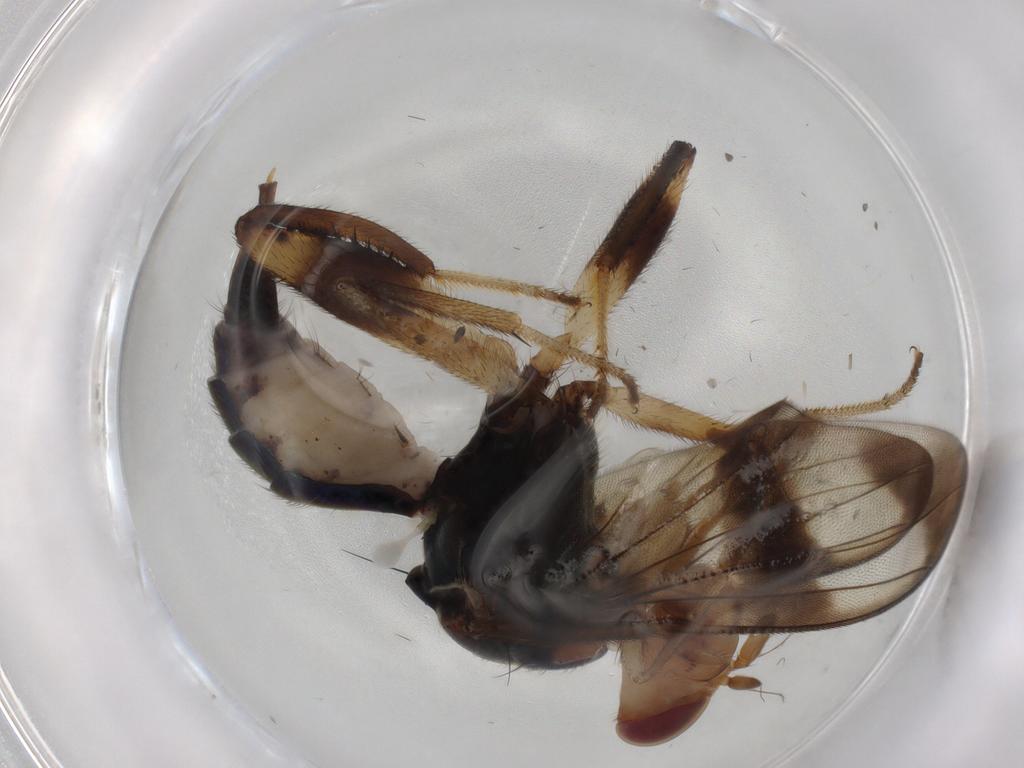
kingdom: Animalia
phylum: Arthropoda
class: Insecta
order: Diptera
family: Richardiidae
